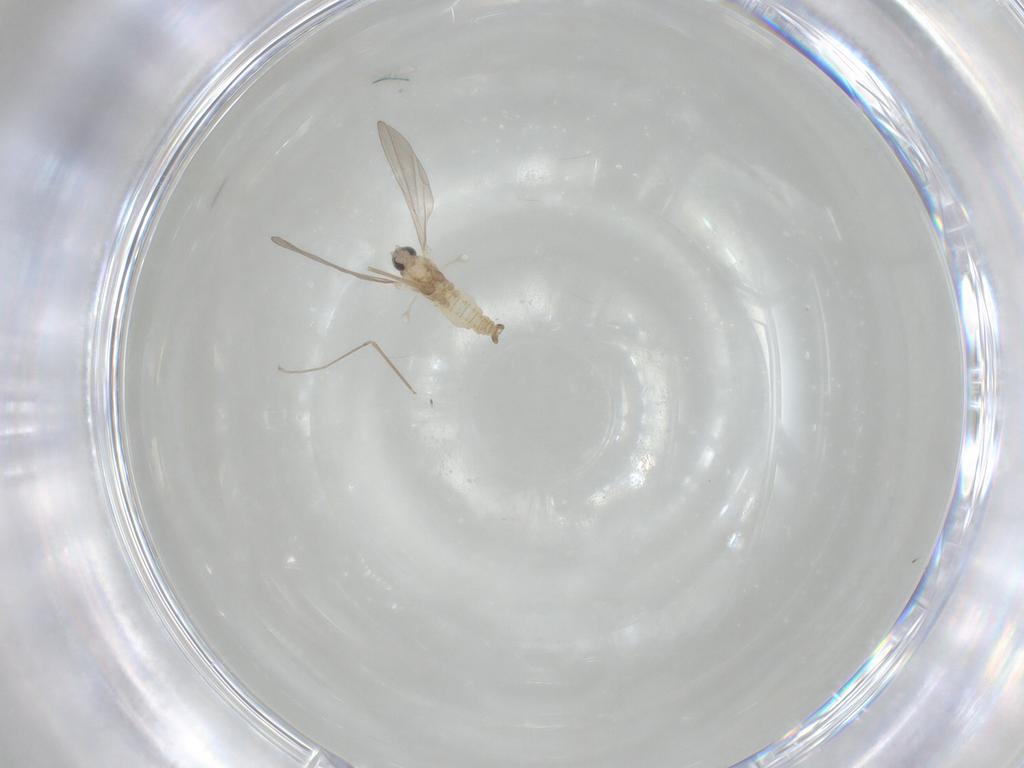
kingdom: Animalia
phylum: Arthropoda
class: Insecta
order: Diptera
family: Cecidomyiidae
